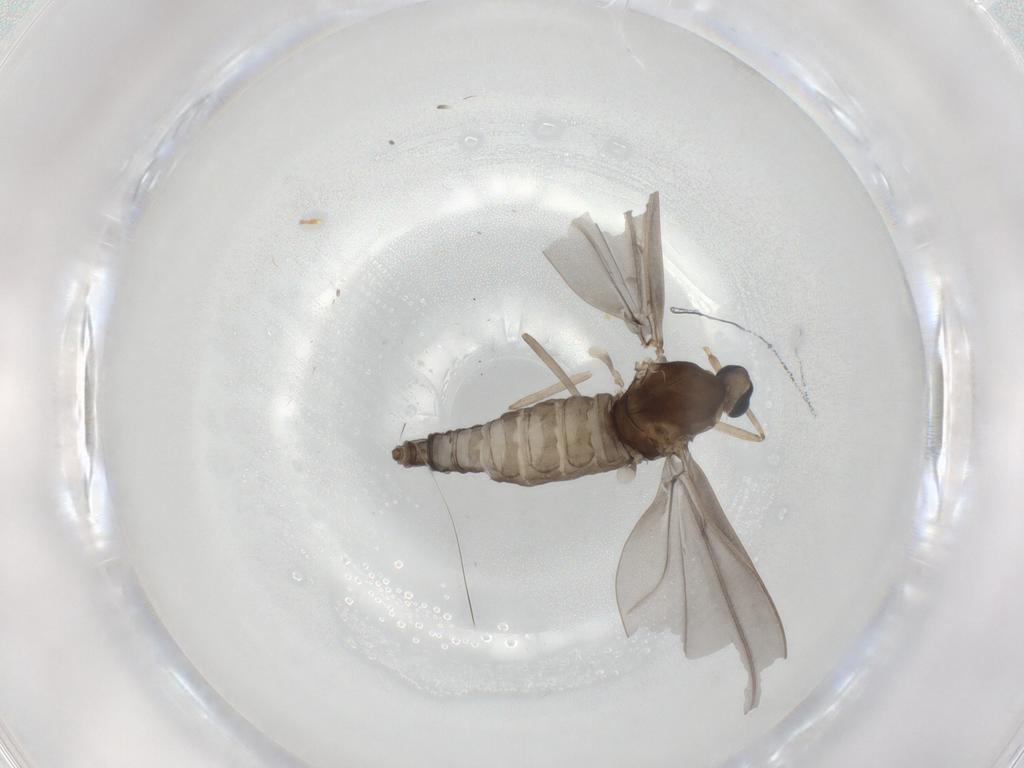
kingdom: Animalia
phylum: Arthropoda
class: Insecta
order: Diptera
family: Cecidomyiidae
